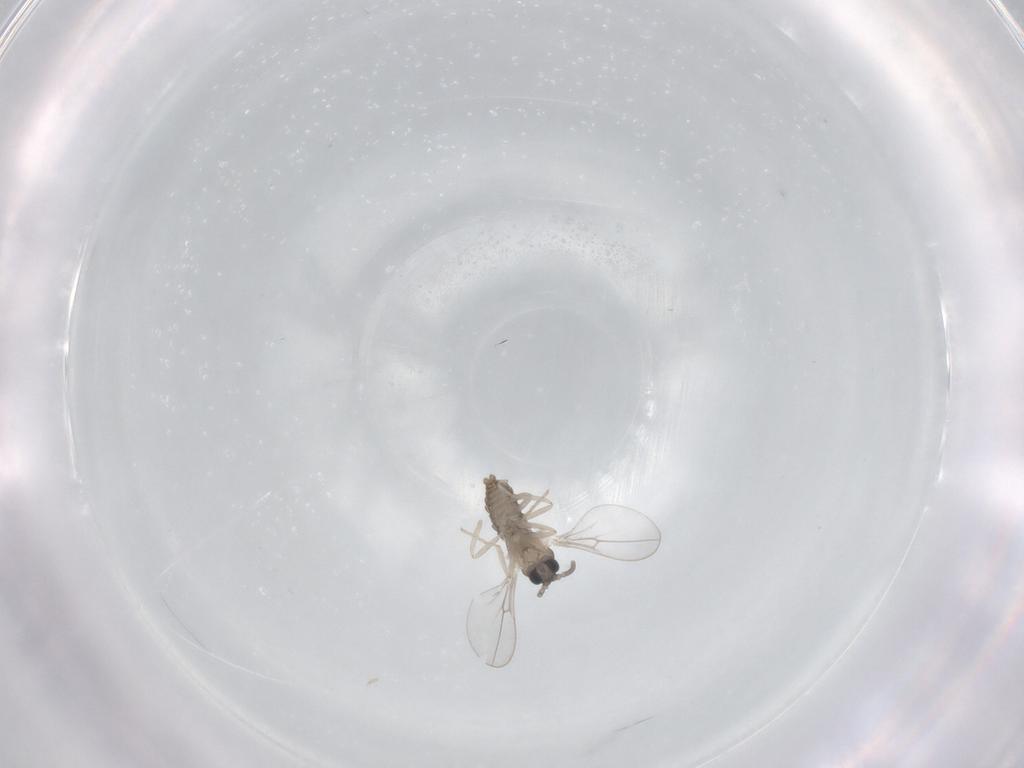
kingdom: Animalia
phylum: Arthropoda
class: Insecta
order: Diptera
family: Cecidomyiidae
